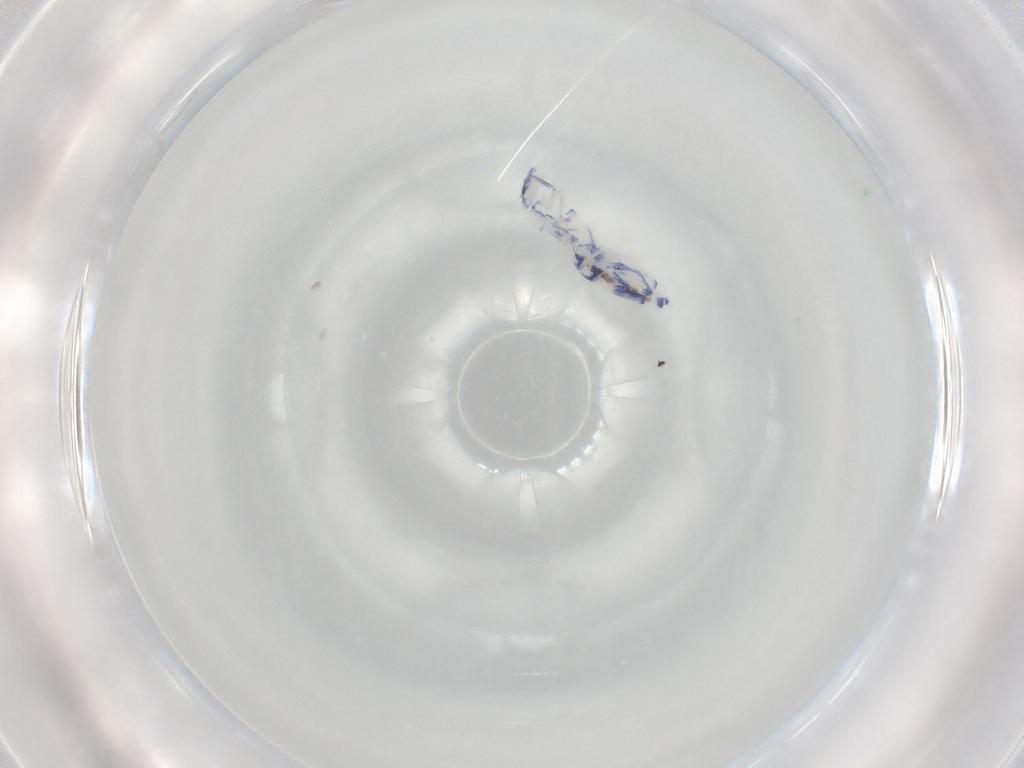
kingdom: Animalia
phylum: Arthropoda
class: Collembola
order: Entomobryomorpha
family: Entomobryidae
